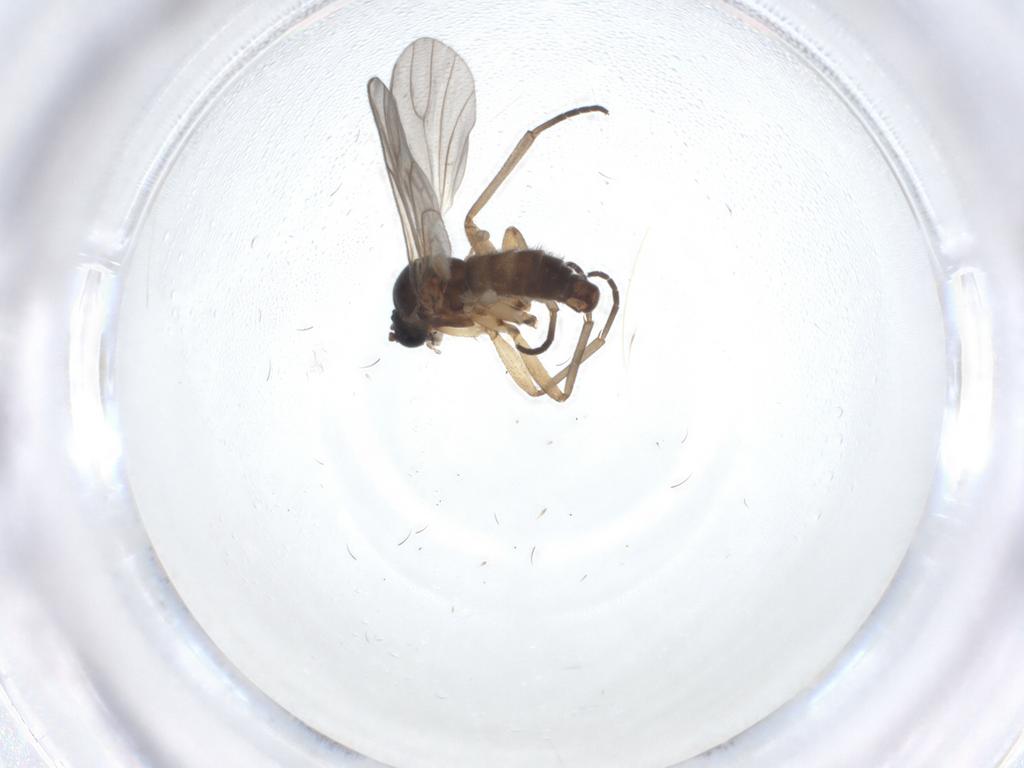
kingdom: Animalia
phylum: Arthropoda
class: Insecta
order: Diptera
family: Sciaridae
